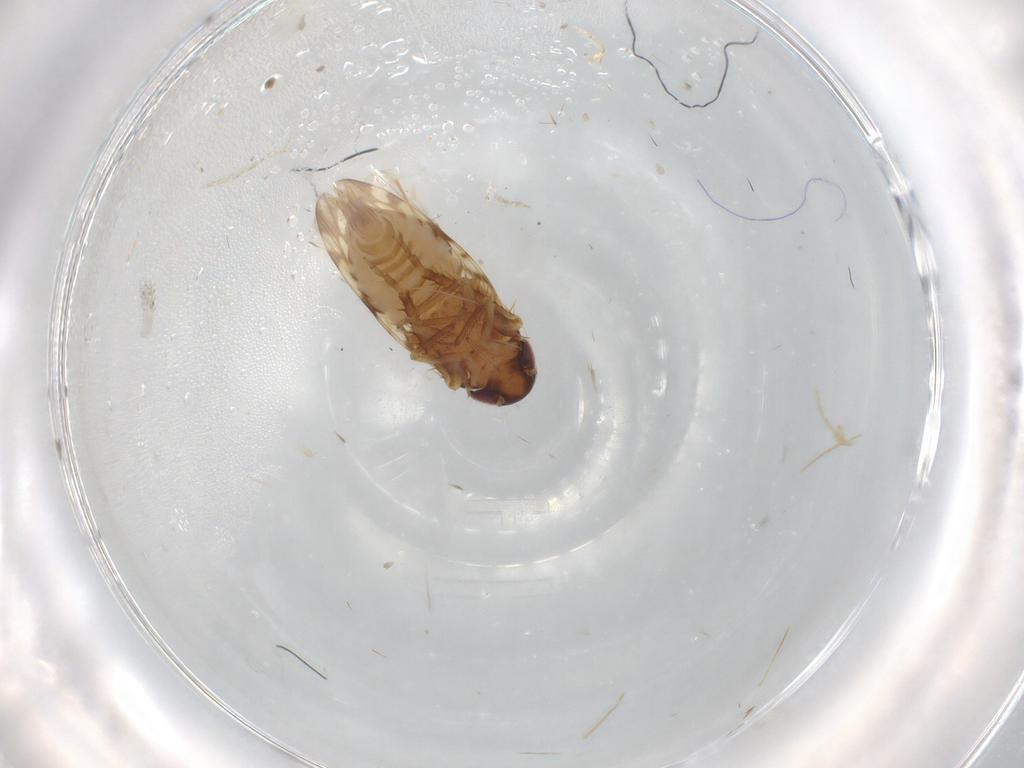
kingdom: Animalia
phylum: Arthropoda
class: Insecta
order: Hemiptera
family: Cicadellidae
